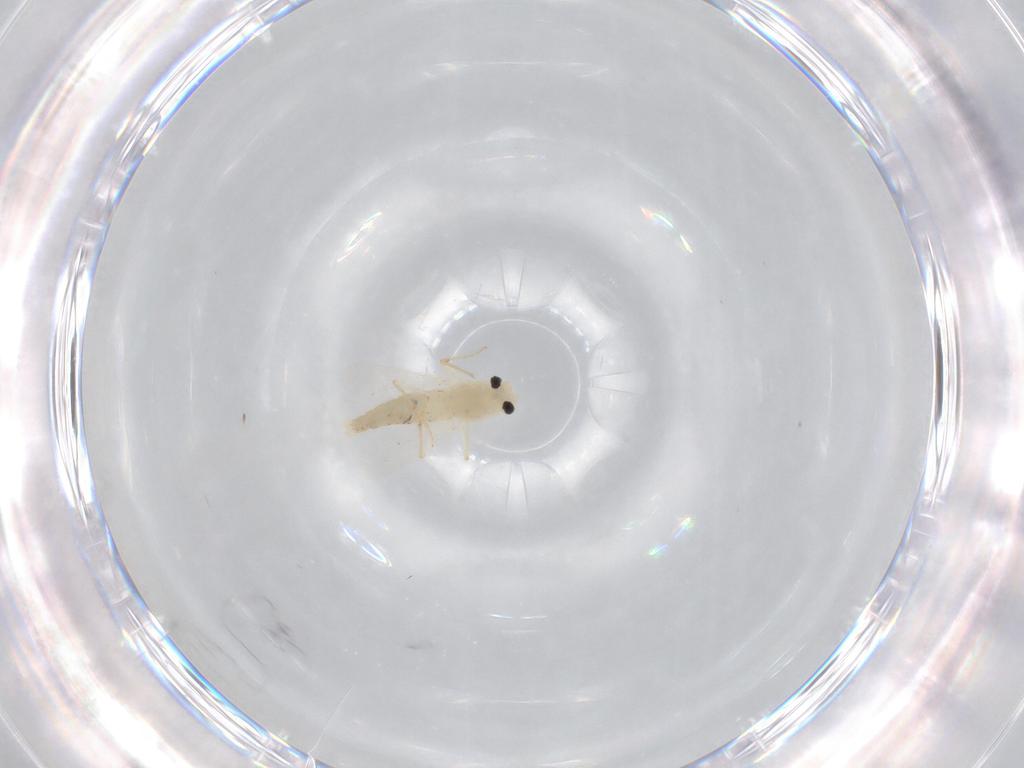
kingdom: Animalia
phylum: Arthropoda
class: Insecta
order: Diptera
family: Chironomidae
